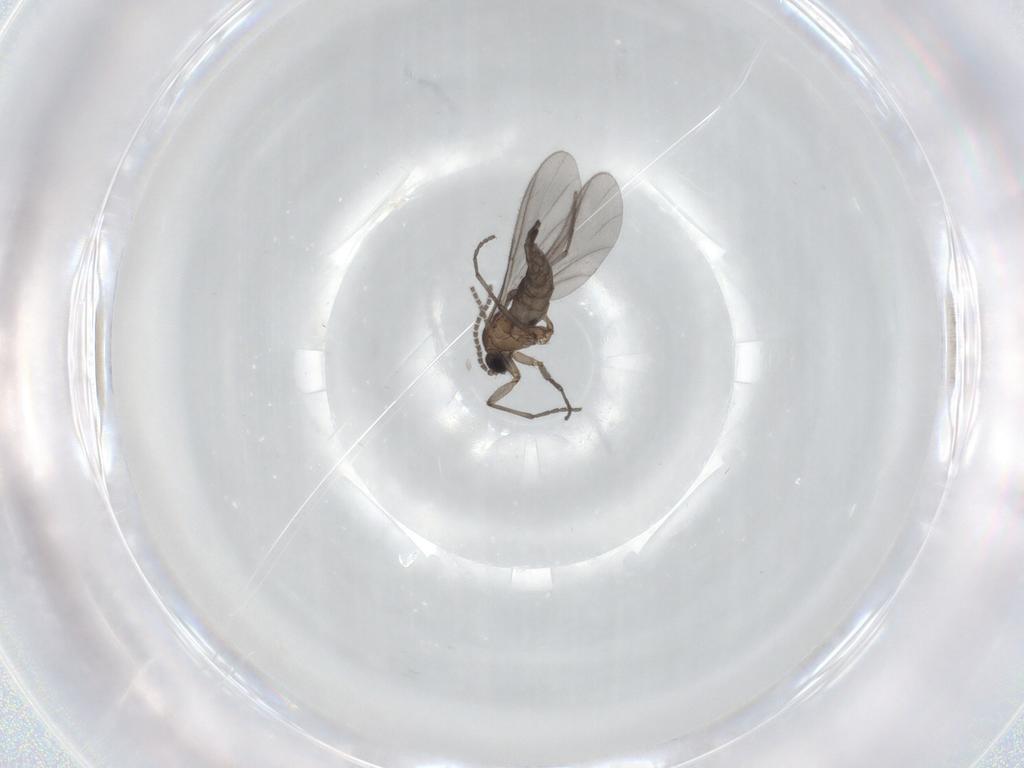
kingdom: Animalia
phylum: Arthropoda
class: Insecta
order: Diptera
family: Sciaridae
